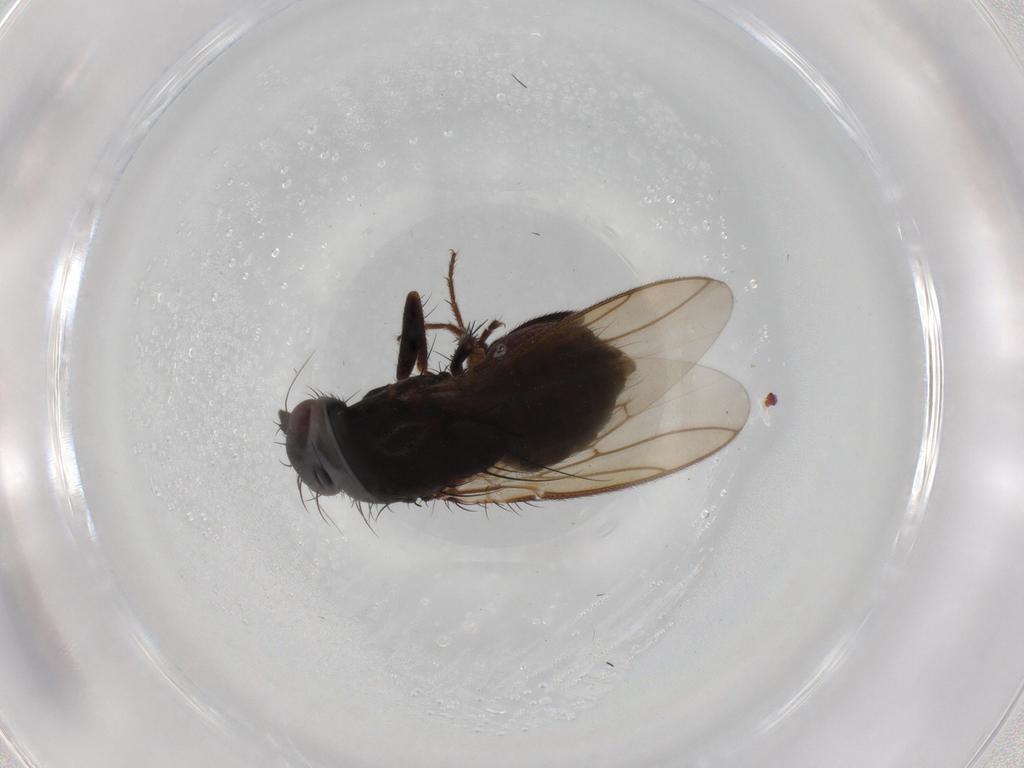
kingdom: Animalia
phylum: Arthropoda
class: Insecta
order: Diptera
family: Sphaeroceridae
